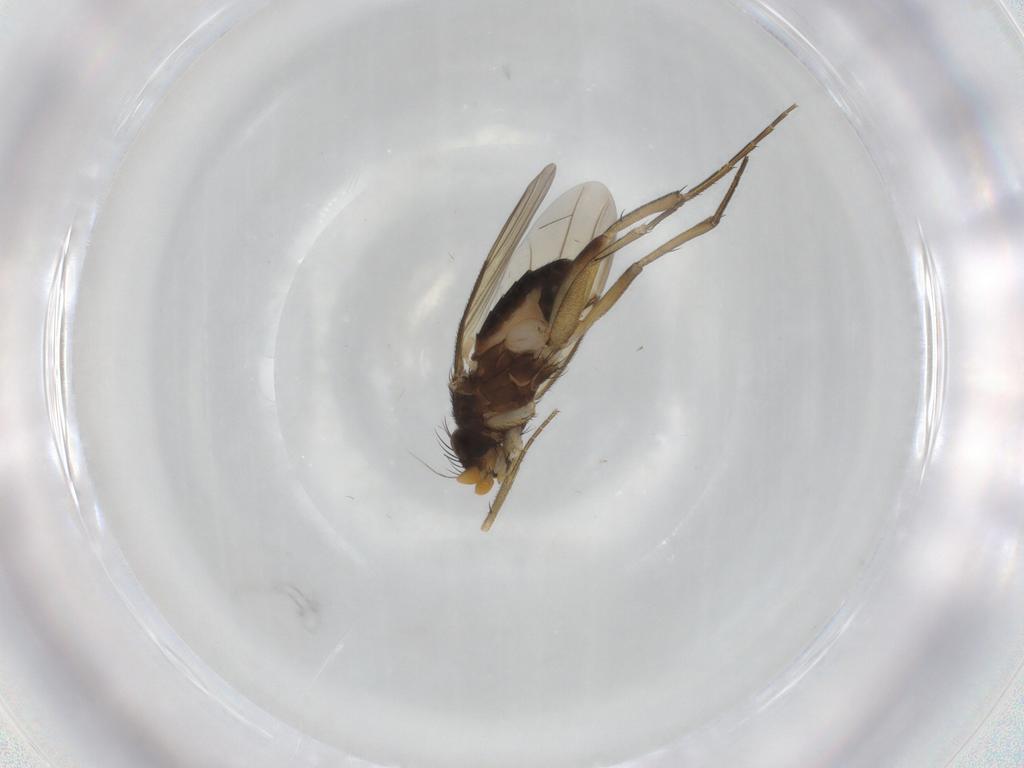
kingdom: Animalia
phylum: Arthropoda
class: Insecta
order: Diptera
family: Phoridae
